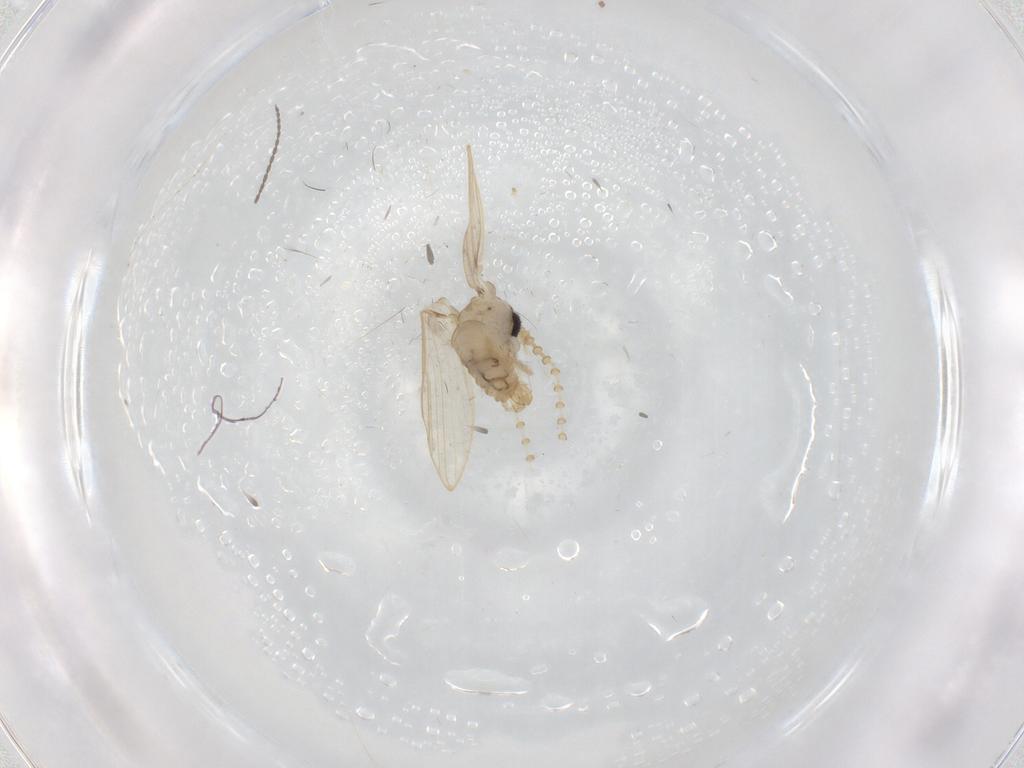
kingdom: Animalia
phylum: Arthropoda
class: Insecta
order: Diptera
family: Psychodidae
